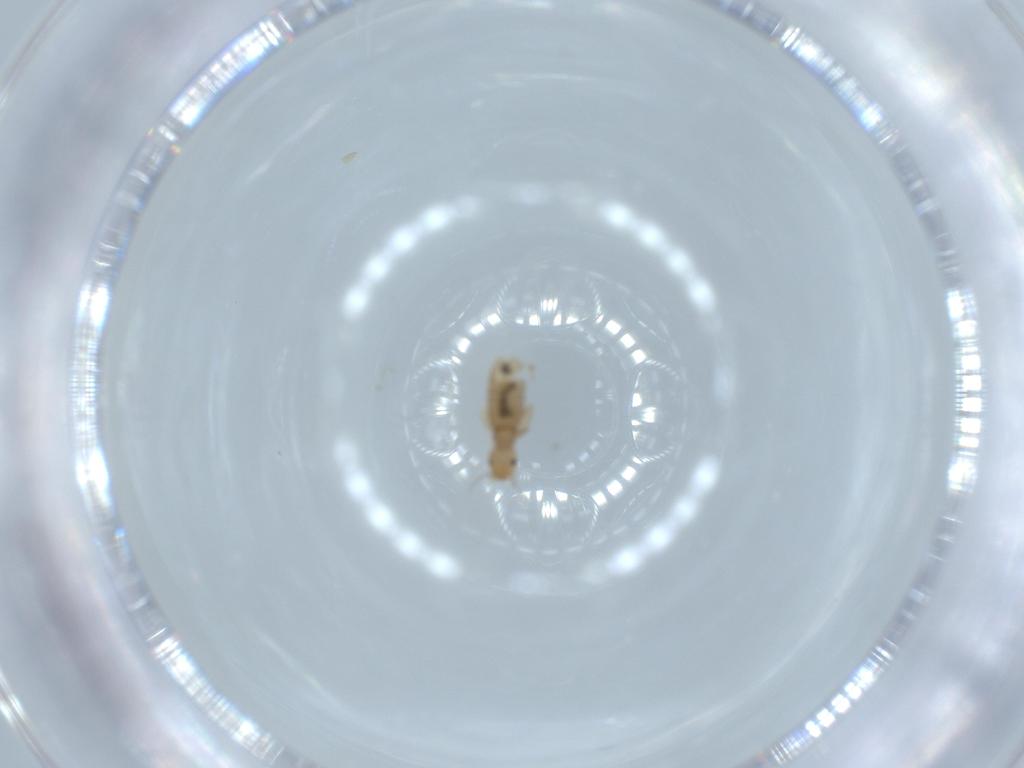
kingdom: Animalia
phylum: Arthropoda
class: Insecta
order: Psocodea
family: Liposcelididae
